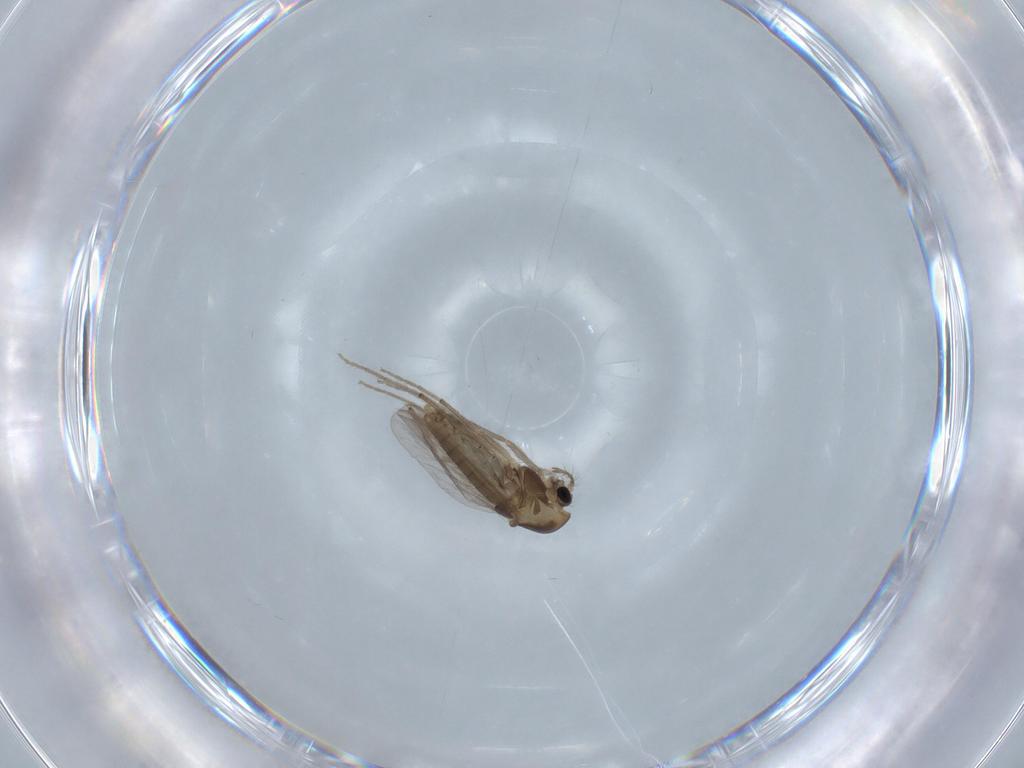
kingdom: Animalia
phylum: Arthropoda
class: Insecta
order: Diptera
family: Chironomidae
